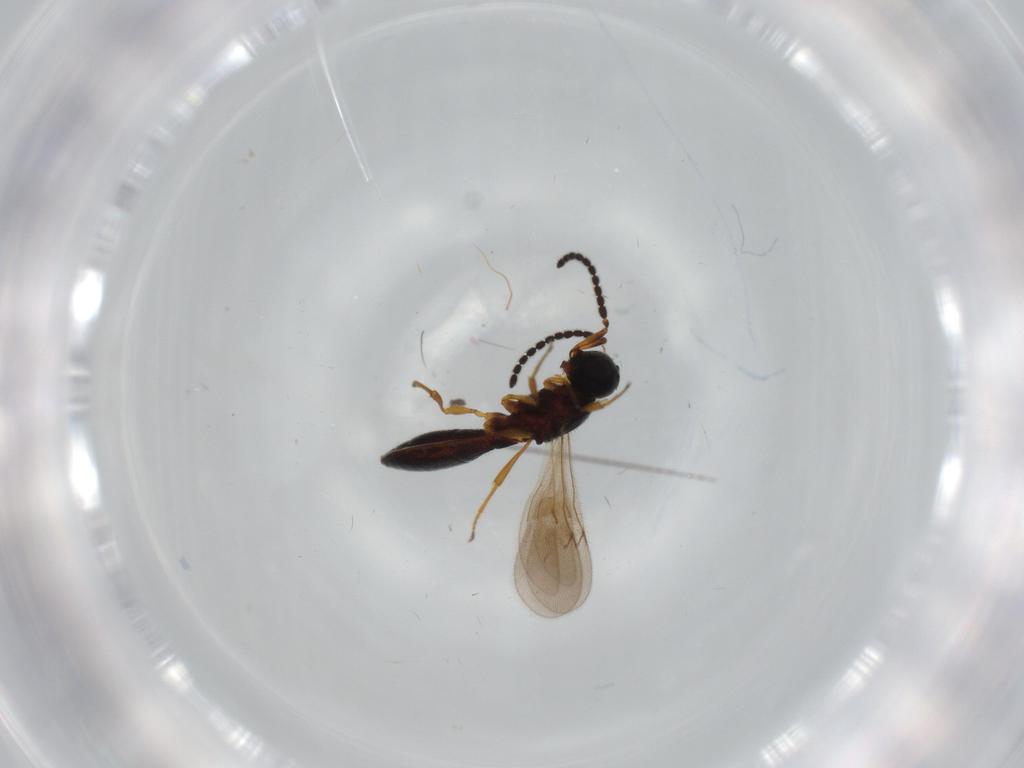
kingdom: Animalia
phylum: Arthropoda
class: Insecta
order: Hymenoptera
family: Scelionidae
